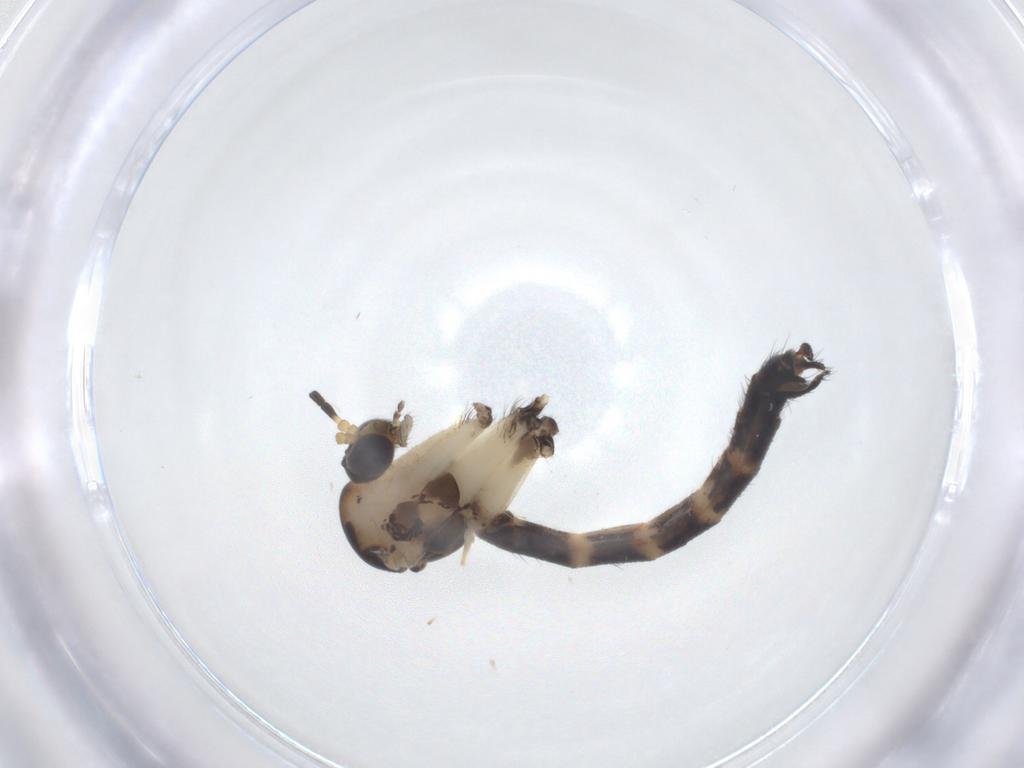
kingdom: Animalia
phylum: Arthropoda
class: Insecta
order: Diptera
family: Mycetophilidae
